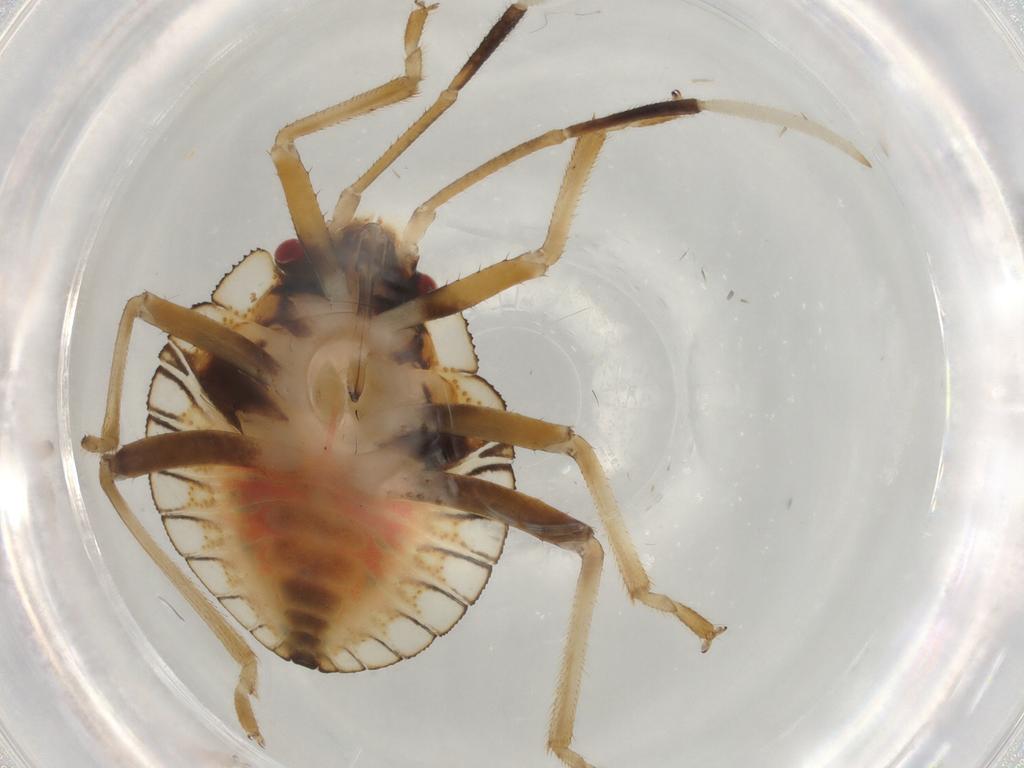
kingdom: Animalia
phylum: Arthropoda
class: Insecta
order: Hemiptera
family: Pentatomidae
